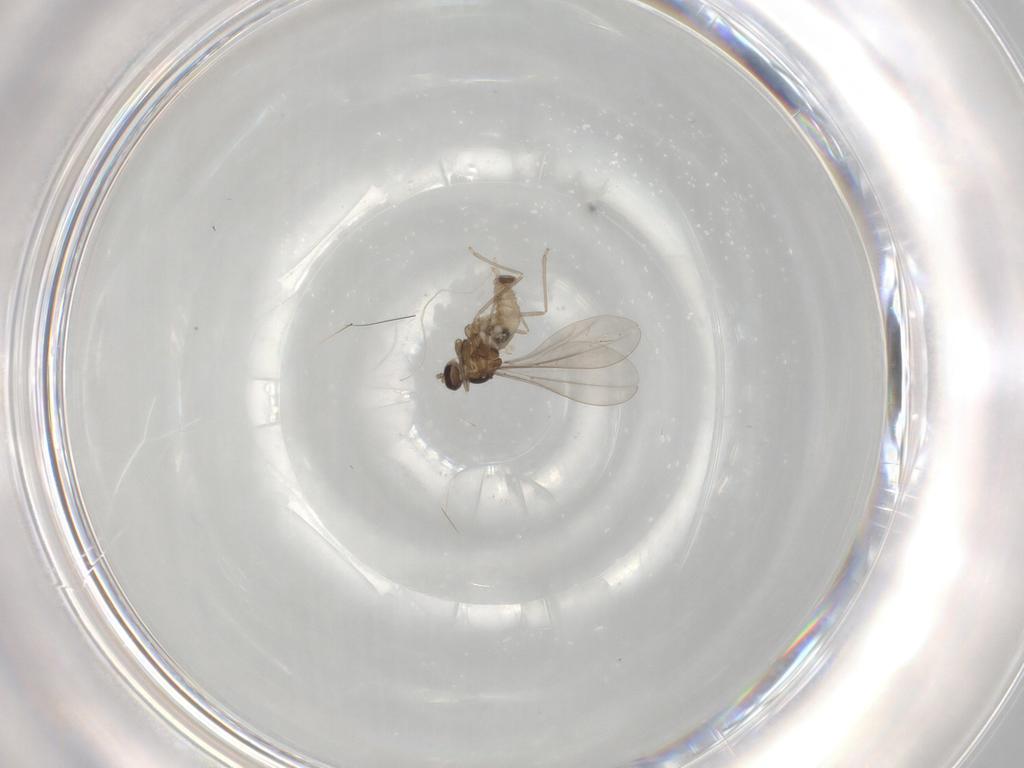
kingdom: Animalia
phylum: Arthropoda
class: Insecta
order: Diptera
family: Cecidomyiidae
